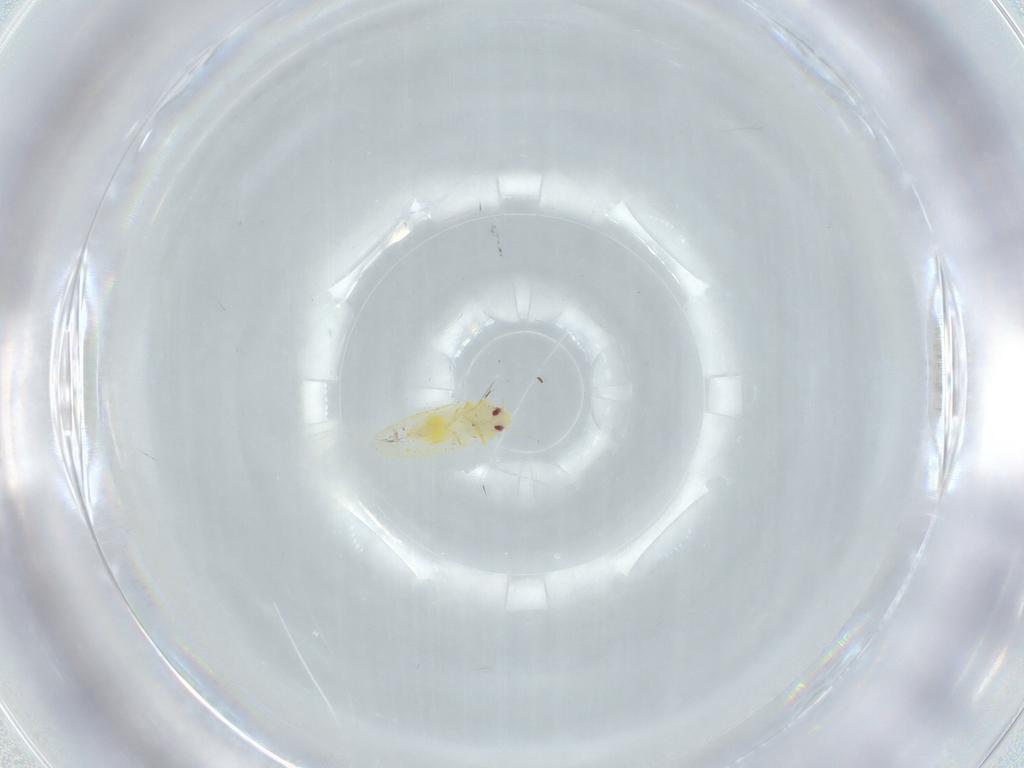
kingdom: Animalia
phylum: Arthropoda
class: Insecta
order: Hemiptera
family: Aleyrodidae
